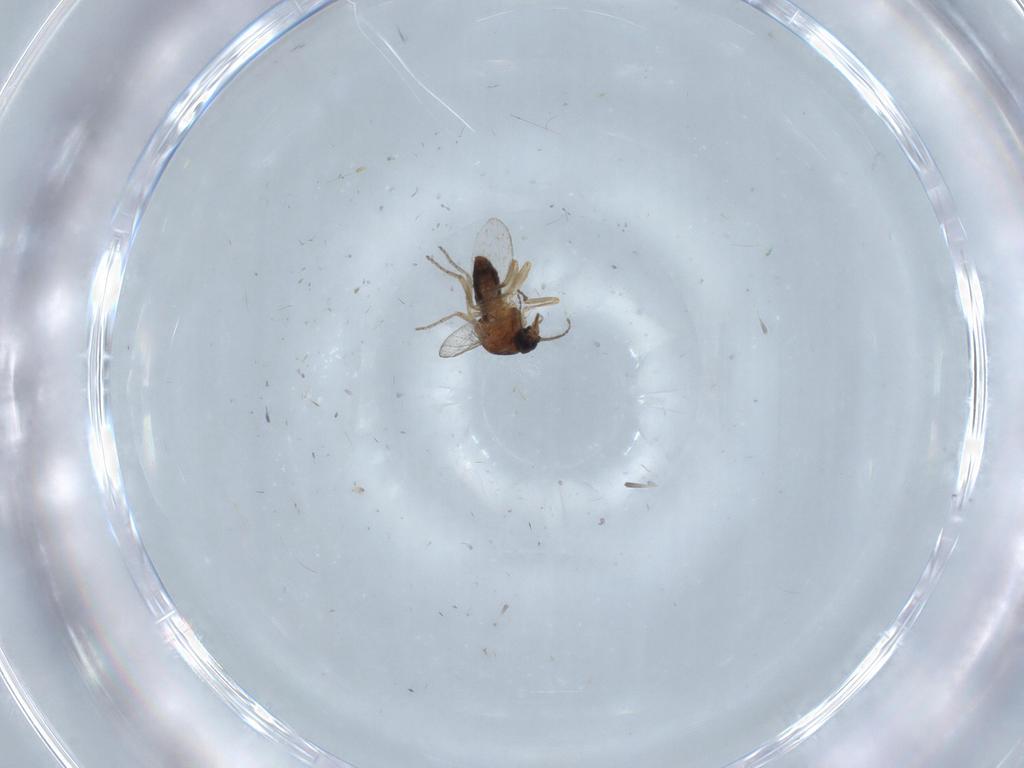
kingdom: Animalia
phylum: Arthropoda
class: Insecta
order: Diptera
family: Ceratopogonidae
